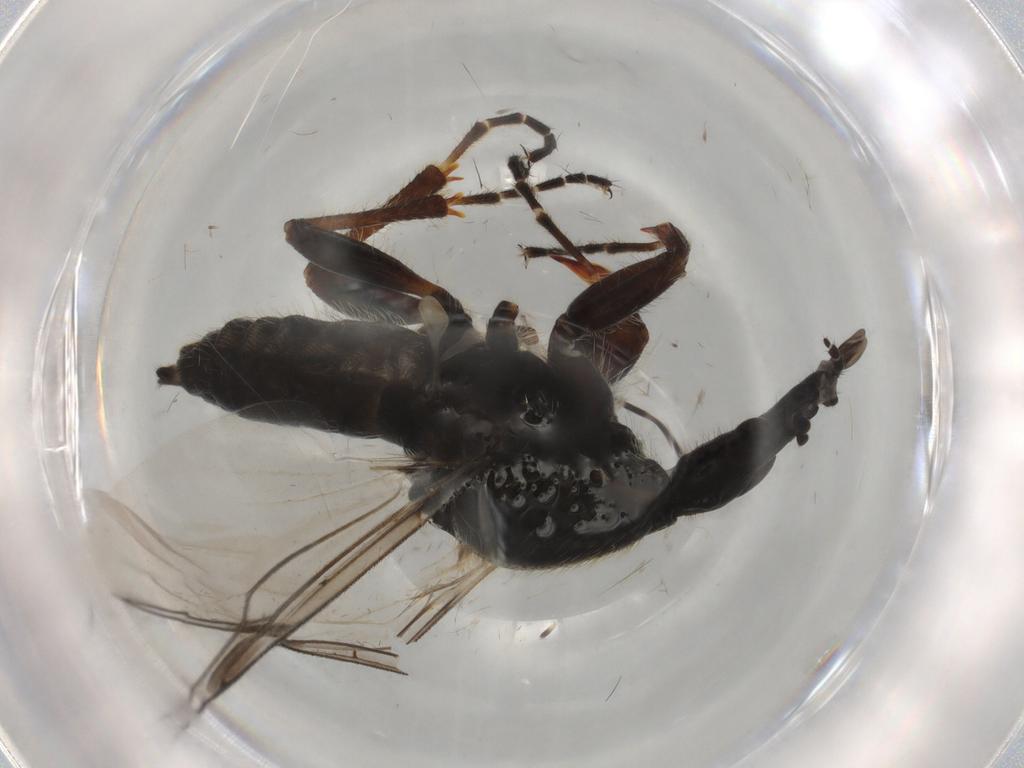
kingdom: Animalia
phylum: Arthropoda
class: Insecta
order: Diptera
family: Bibionidae
